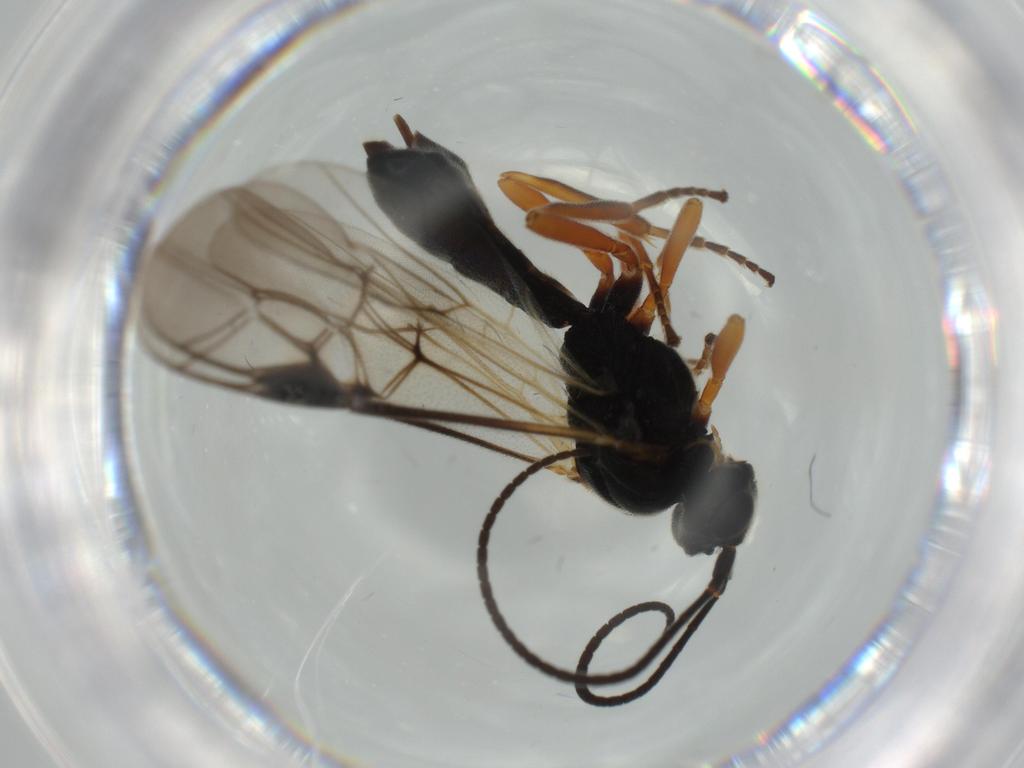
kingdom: Animalia
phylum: Arthropoda
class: Insecta
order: Hymenoptera
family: Braconidae
